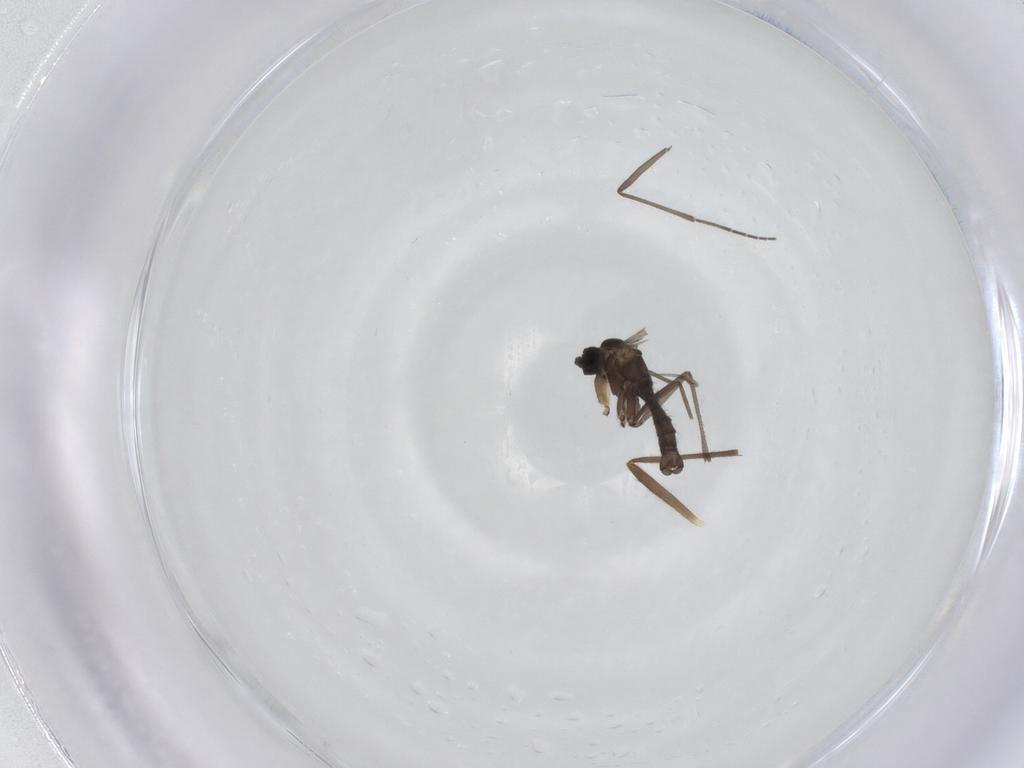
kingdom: Animalia
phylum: Arthropoda
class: Insecta
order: Diptera
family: Chironomidae
